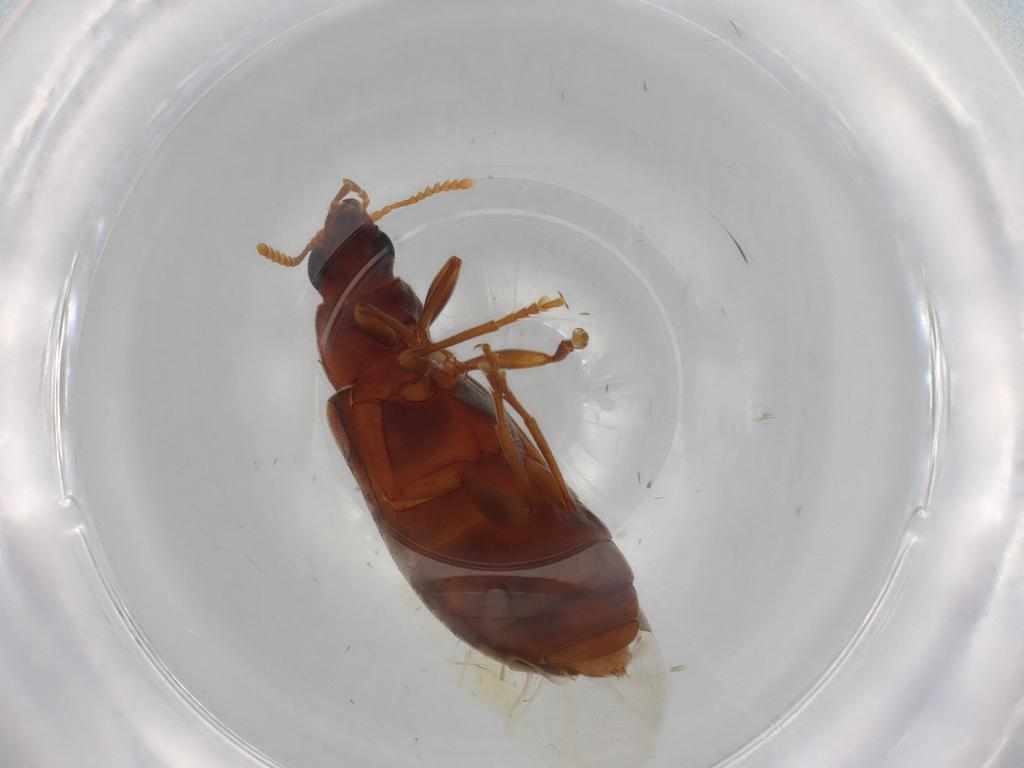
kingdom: Animalia
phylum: Arthropoda
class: Insecta
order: Coleoptera
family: Mycteridae
